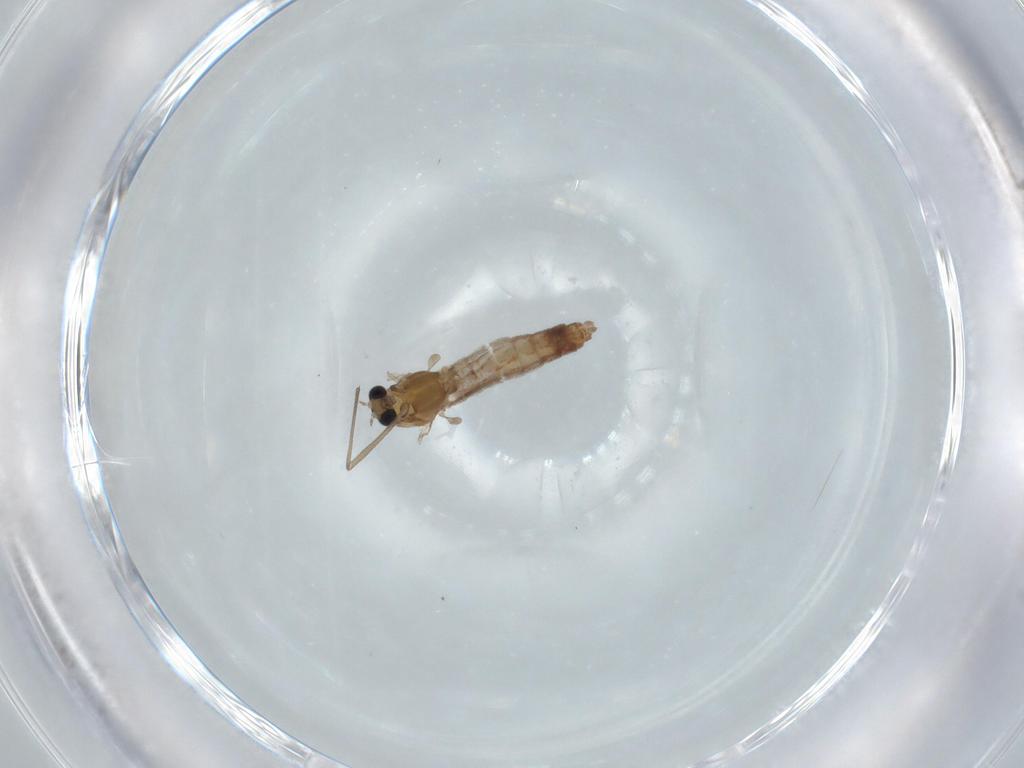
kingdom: Animalia
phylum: Arthropoda
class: Insecta
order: Diptera
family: Chironomidae
